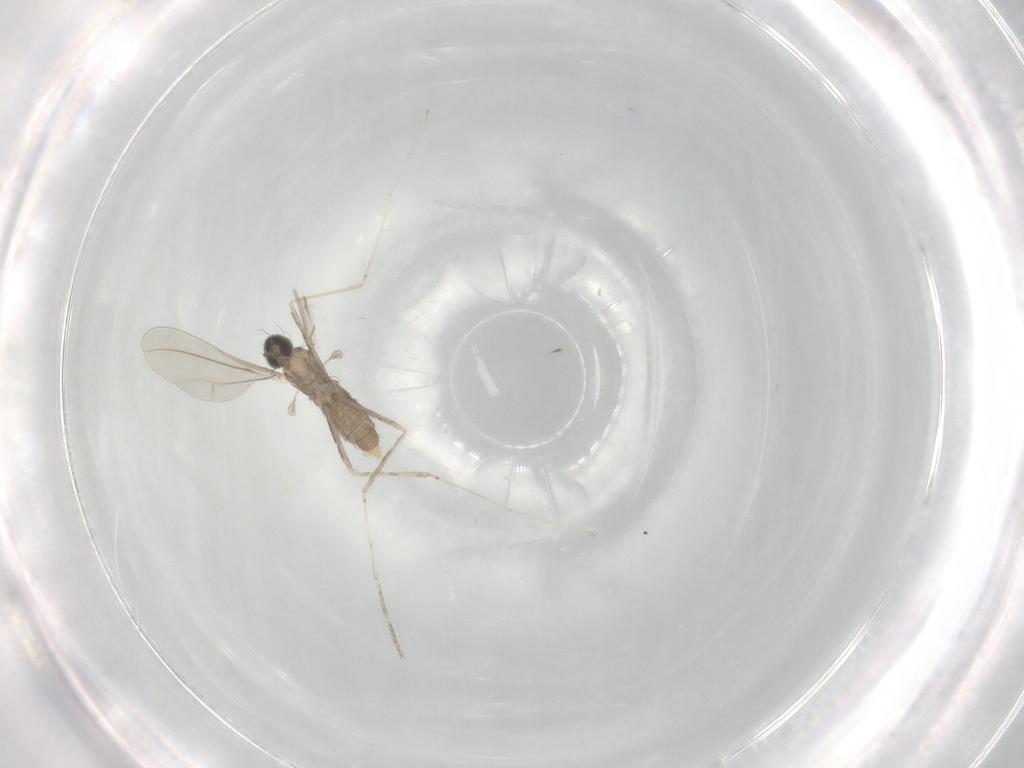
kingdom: Animalia
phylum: Arthropoda
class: Insecta
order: Diptera
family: Cecidomyiidae
